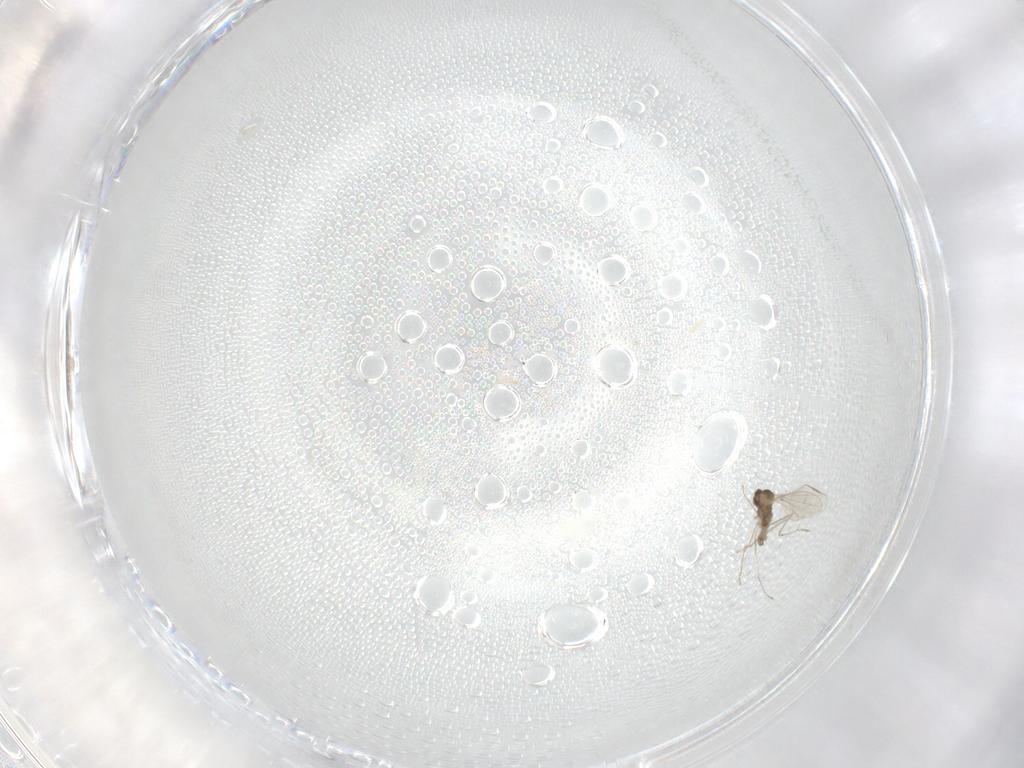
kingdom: Animalia
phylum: Arthropoda
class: Insecta
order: Diptera
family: Cecidomyiidae
